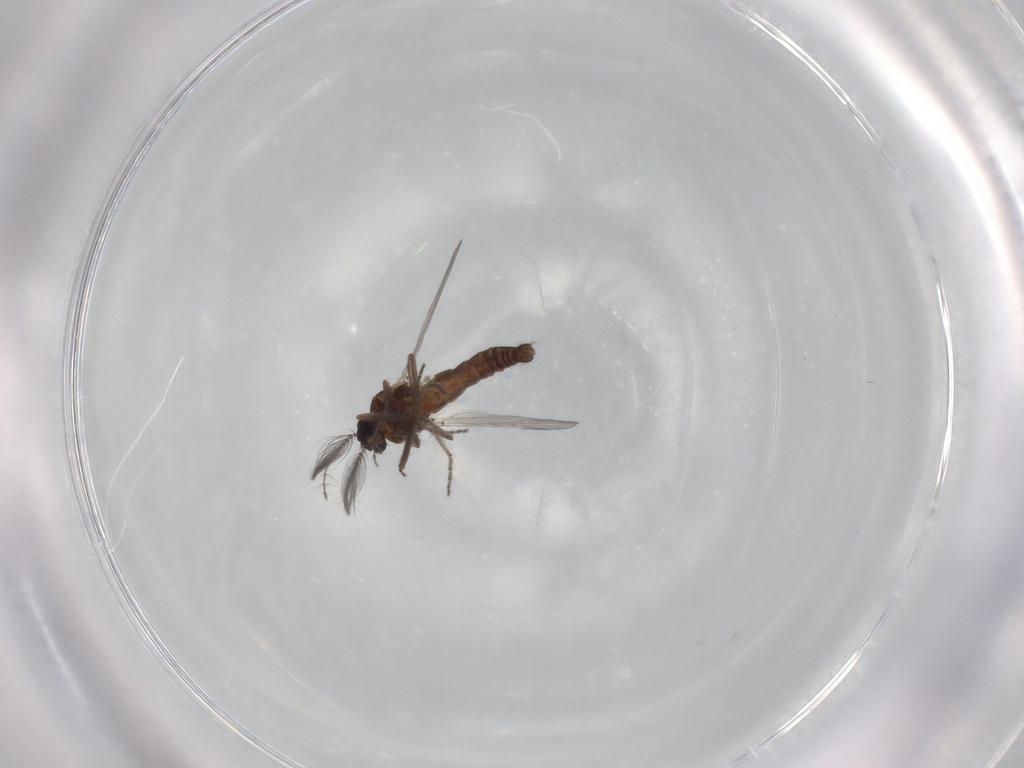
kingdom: Animalia
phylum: Arthropoda
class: Insecta
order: Diptera
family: Ceratopogonidae
